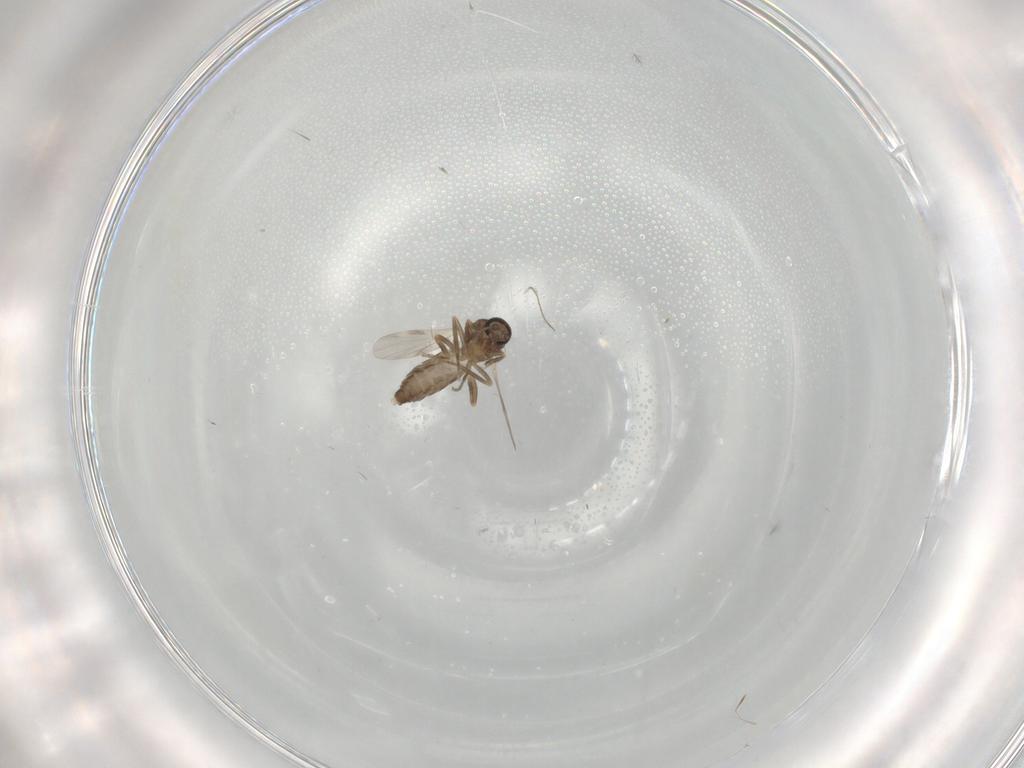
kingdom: Animalia
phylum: Arthropoda
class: Insecta
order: Diptera
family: Ceratopogonidae
